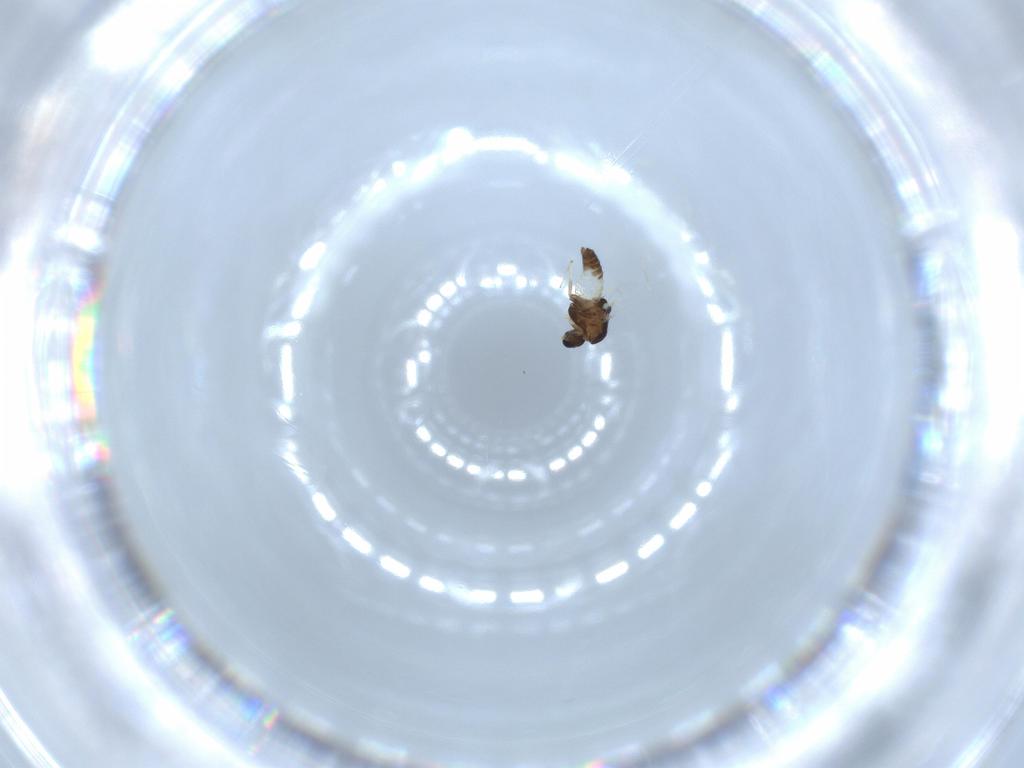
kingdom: Animalia
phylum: Arthropoda
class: Insecta
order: Diptera
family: Chironomidae
